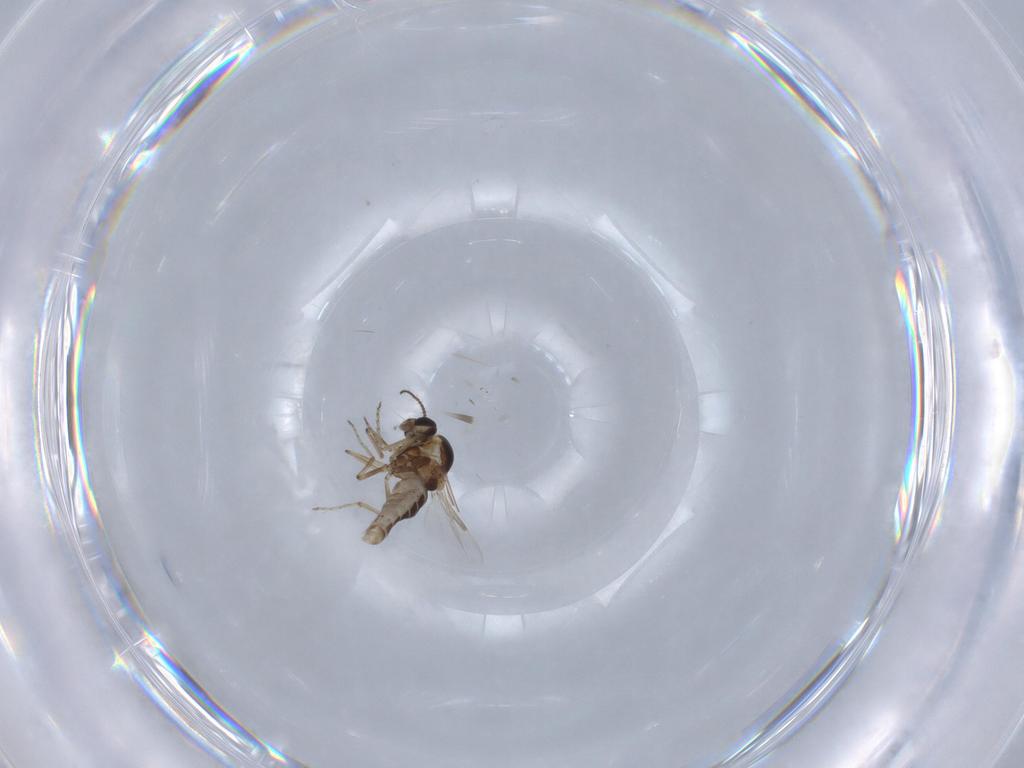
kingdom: Animalia
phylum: Arthropoda
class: Insecta
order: Diptera
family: Ceratopogonidae
